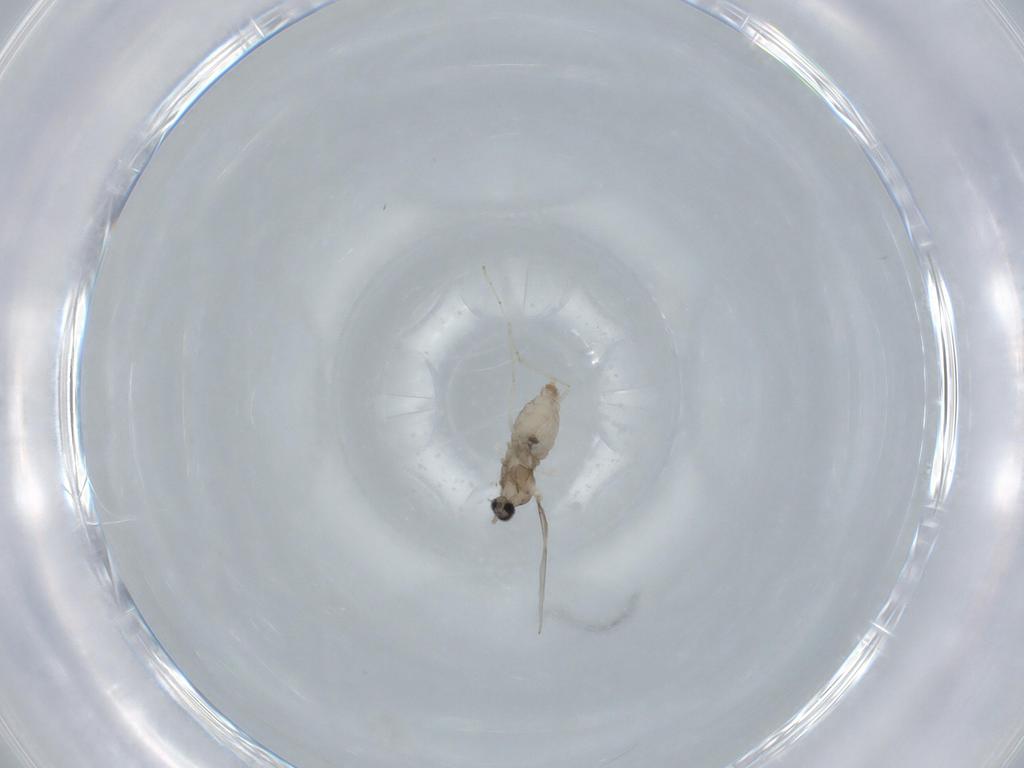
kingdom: Animalia
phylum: Arthropoda
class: Insecta
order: Diptera
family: Cecidomyiidae
